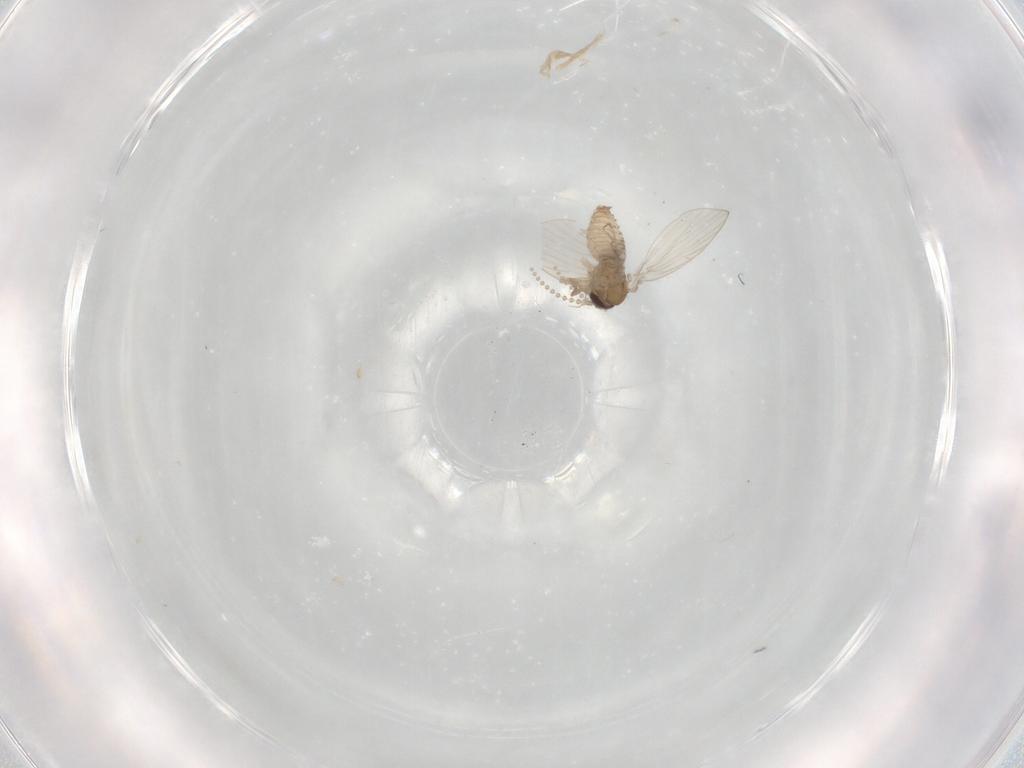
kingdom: Animalia
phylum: Arthropoda
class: Insecta
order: Diptera
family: Psychodidae
